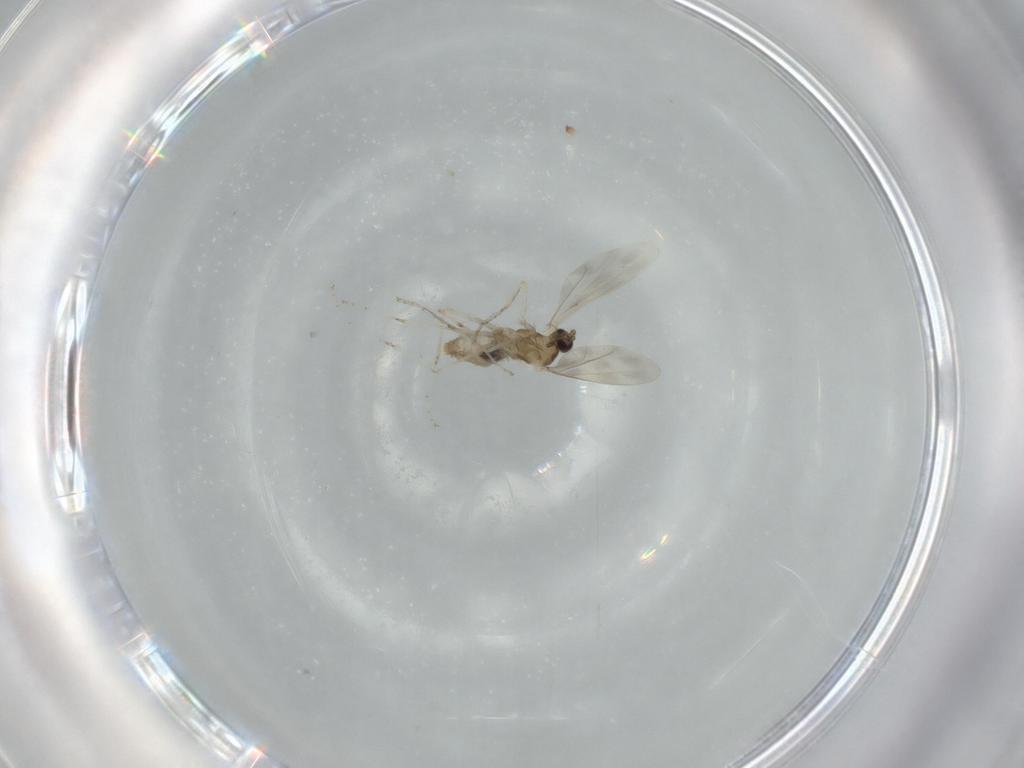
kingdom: Animalia
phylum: Arthropoda
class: Insecta
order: Diptera
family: Cecidomyiidae
